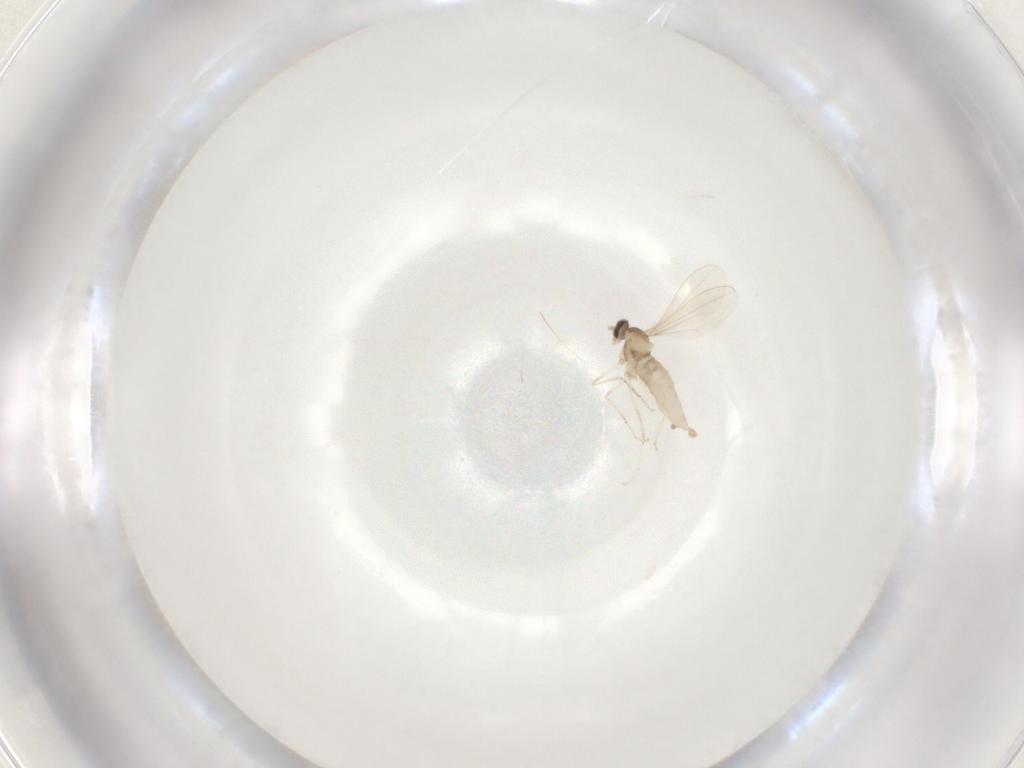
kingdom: Animalia
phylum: Arthropoda
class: Insecta
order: Diptera
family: Cecidomyiidae
